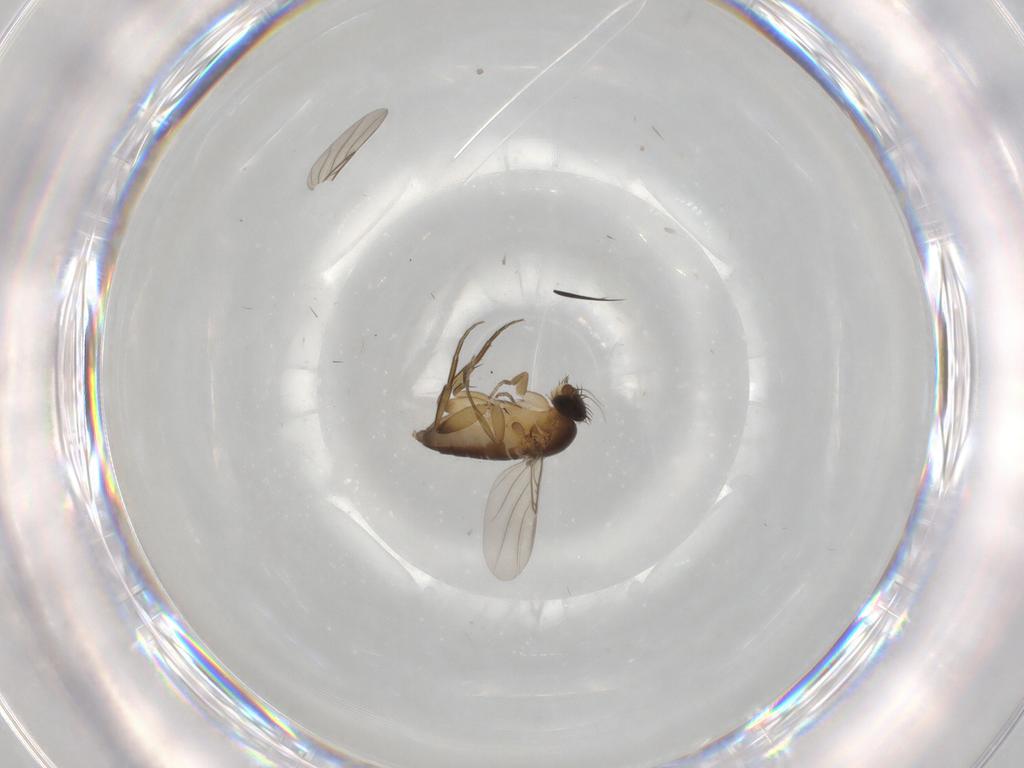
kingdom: Animalia
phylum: Arthropoda
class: Insecta
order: Diptera
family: Phoridae
